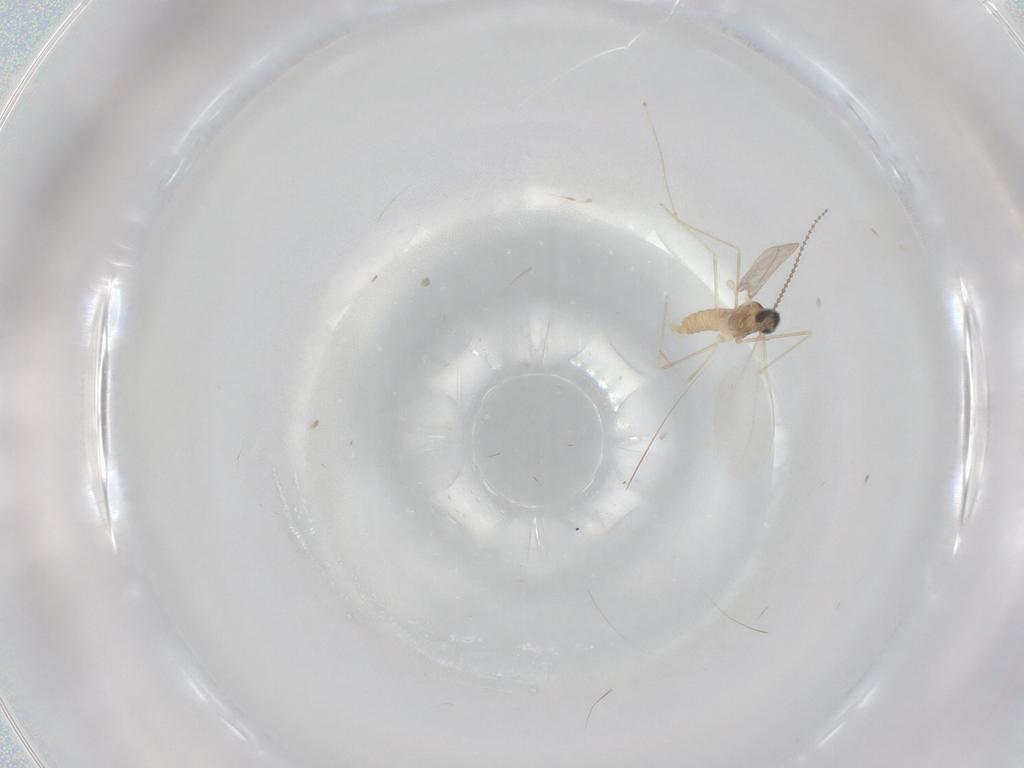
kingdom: Animalia
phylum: Arthropoda
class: Insecta
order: Diptera
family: Cecidomyiidae
